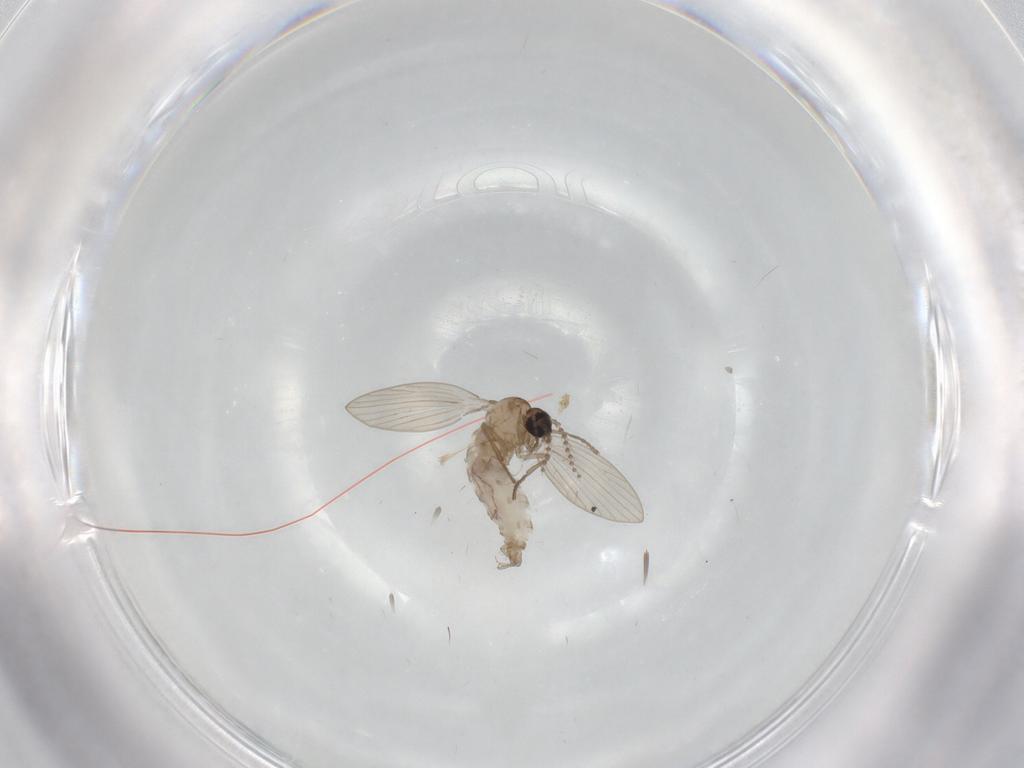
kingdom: Animalia
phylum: Arthropoda
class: Insecta
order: Diptera
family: Psychodidae
